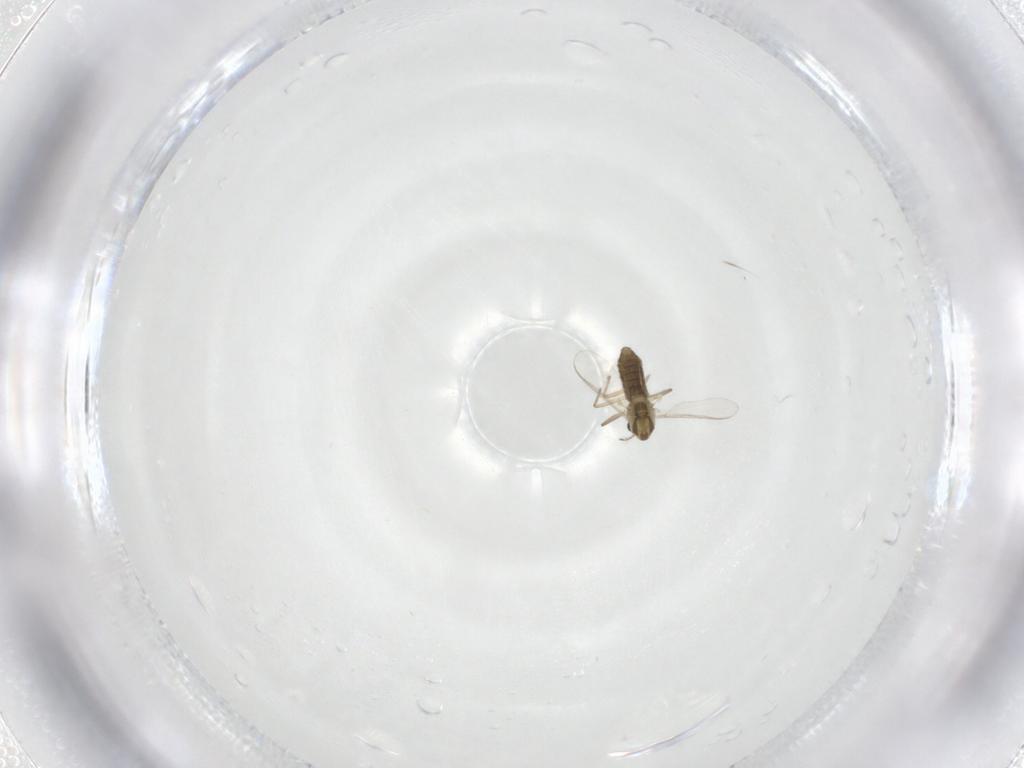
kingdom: Animalia
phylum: Arthropoda
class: Insecta
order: Diptera
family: Chironomidae
